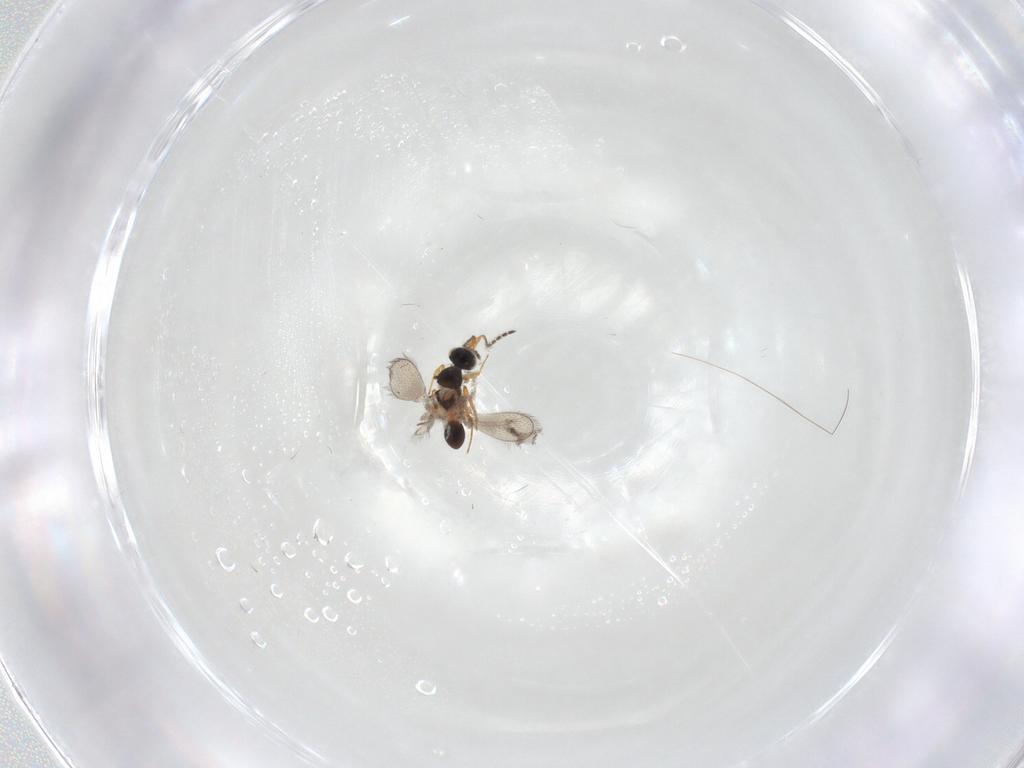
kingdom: Animalia
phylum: Arthropoda
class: Insecta
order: Hymenoptera
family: Platygastridae
